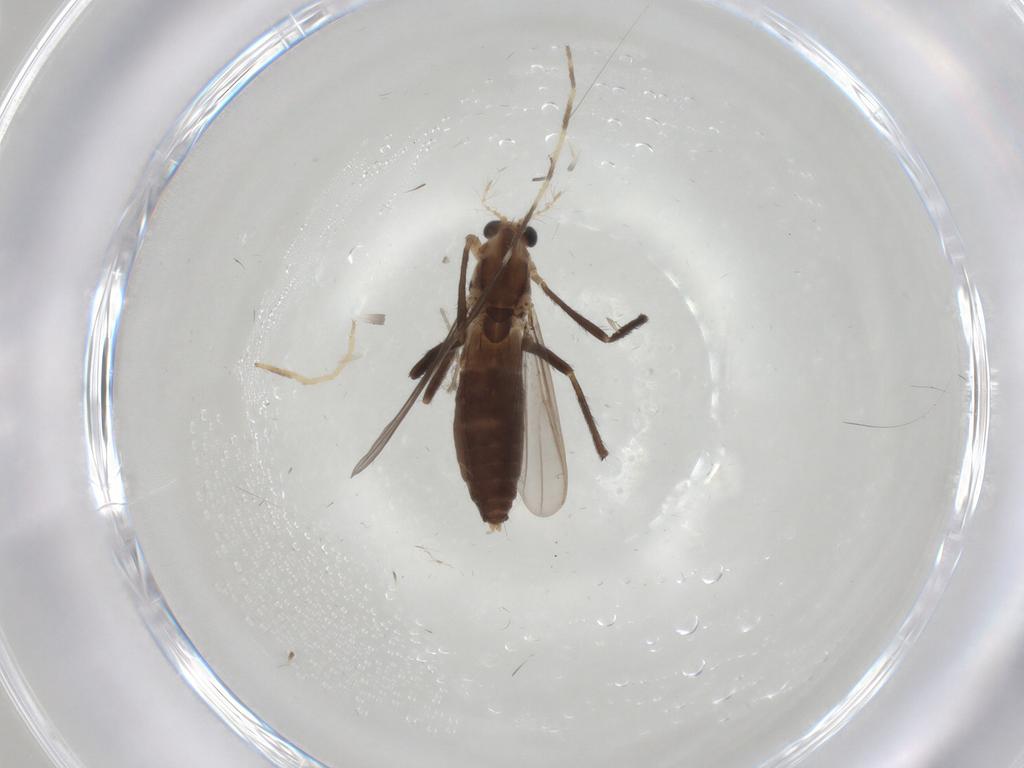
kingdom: Animalia
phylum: Arthropoda
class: Insecta
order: Diptera
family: Chironomidae
